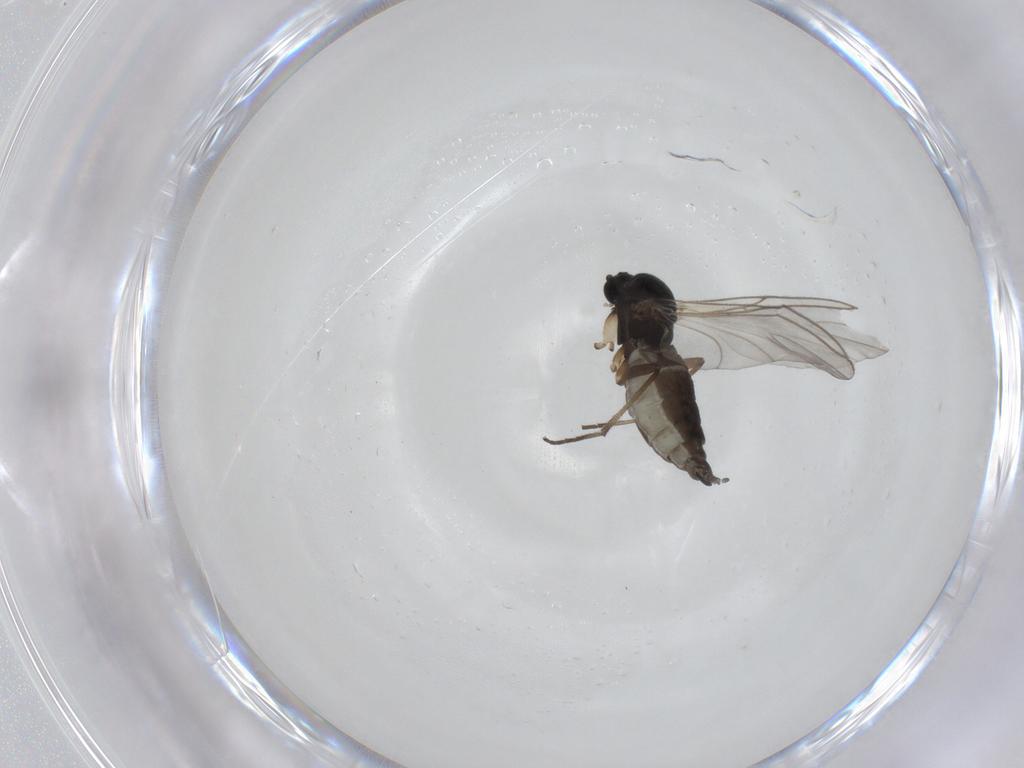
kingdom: Animalia
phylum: Arthropoda
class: Insecta
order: Diptera
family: Sciaridae
